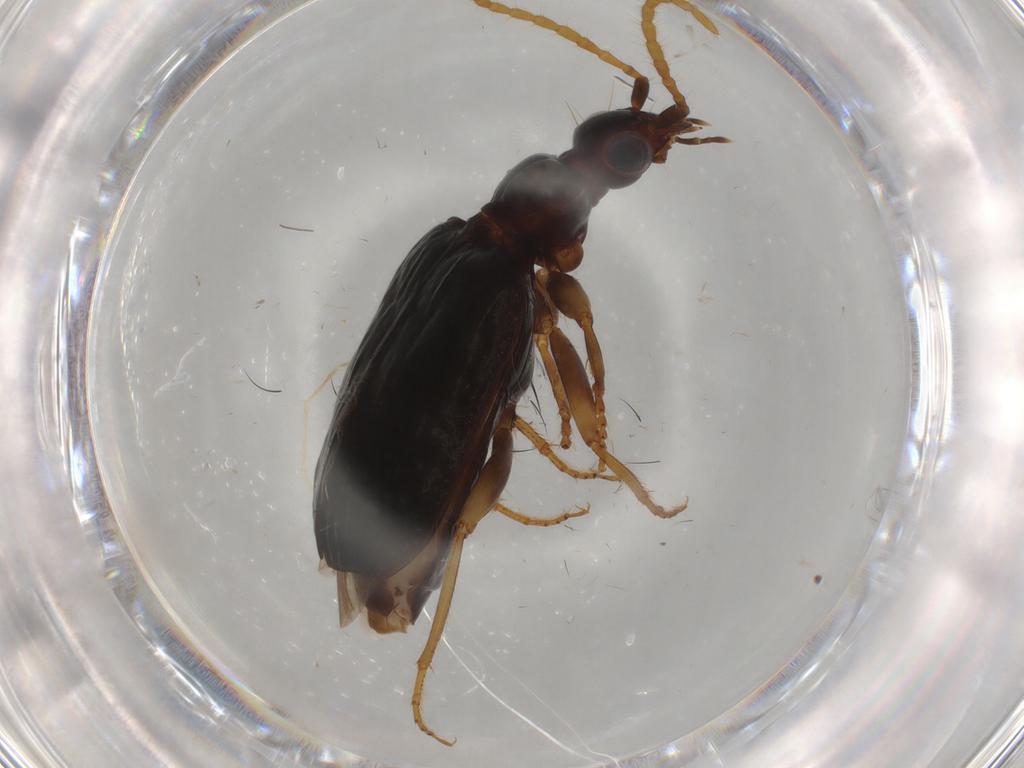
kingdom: Animalia
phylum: Arthropoda
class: Insecta
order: Coleoptera
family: Carabidae
